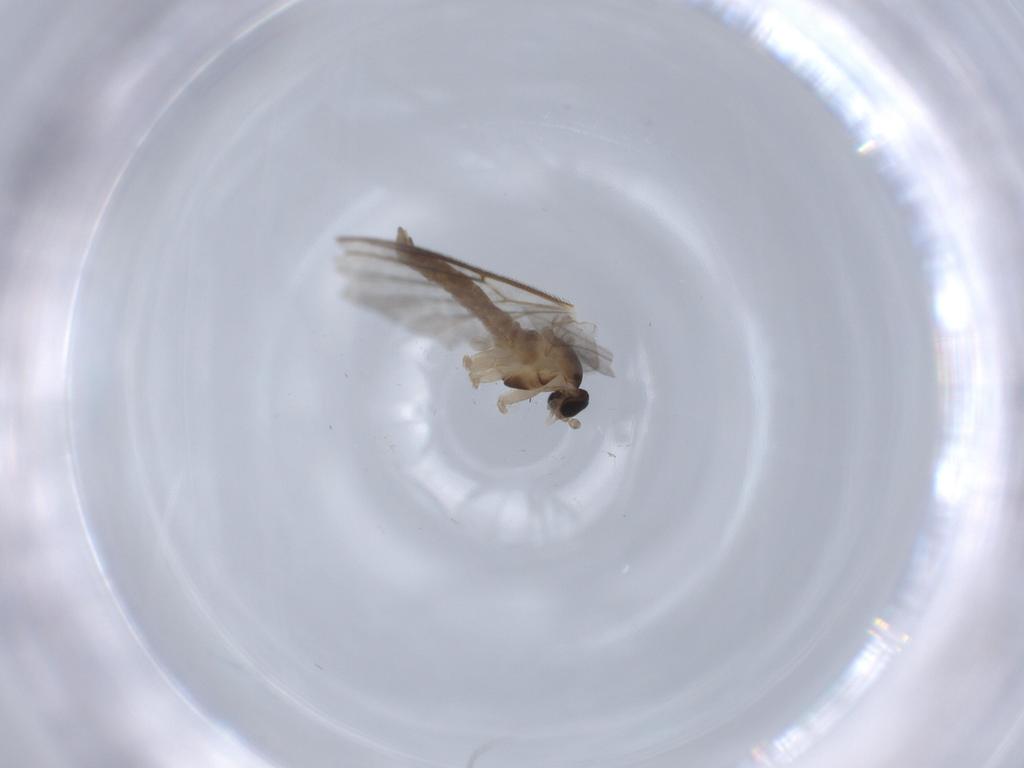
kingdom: Animalia
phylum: Arthropoda
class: Insecta
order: Diptera
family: Cecidomyiidae
